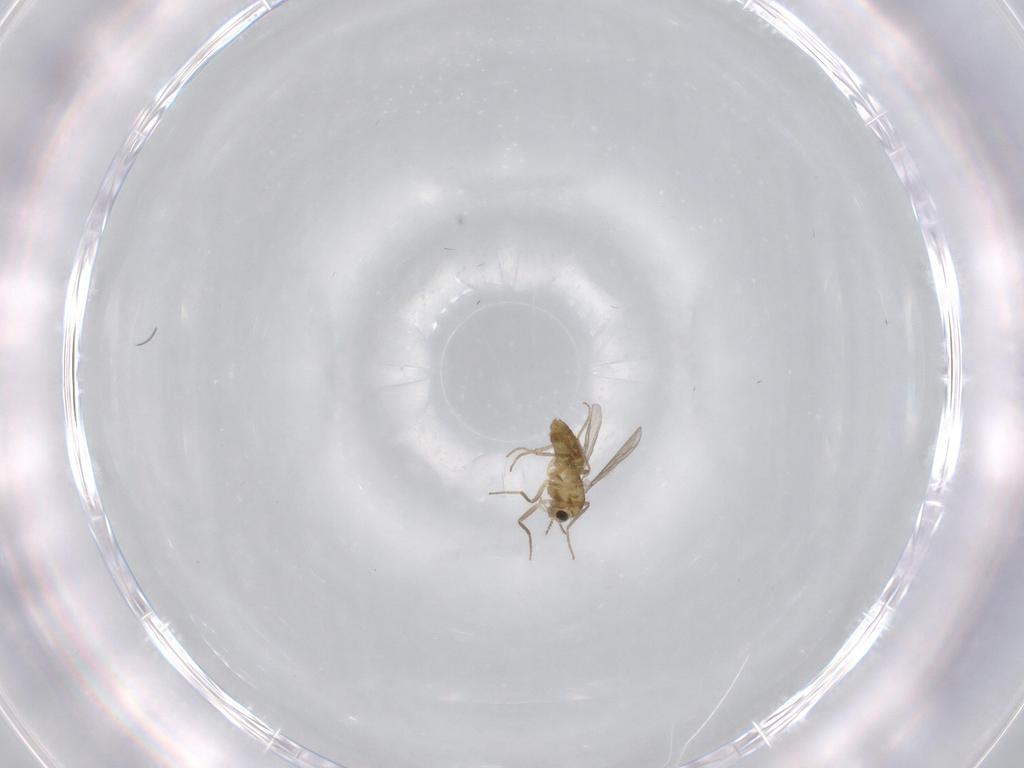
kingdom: Animalia
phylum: Arthropoda
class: Insecta
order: Diptera
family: Chironomidae
